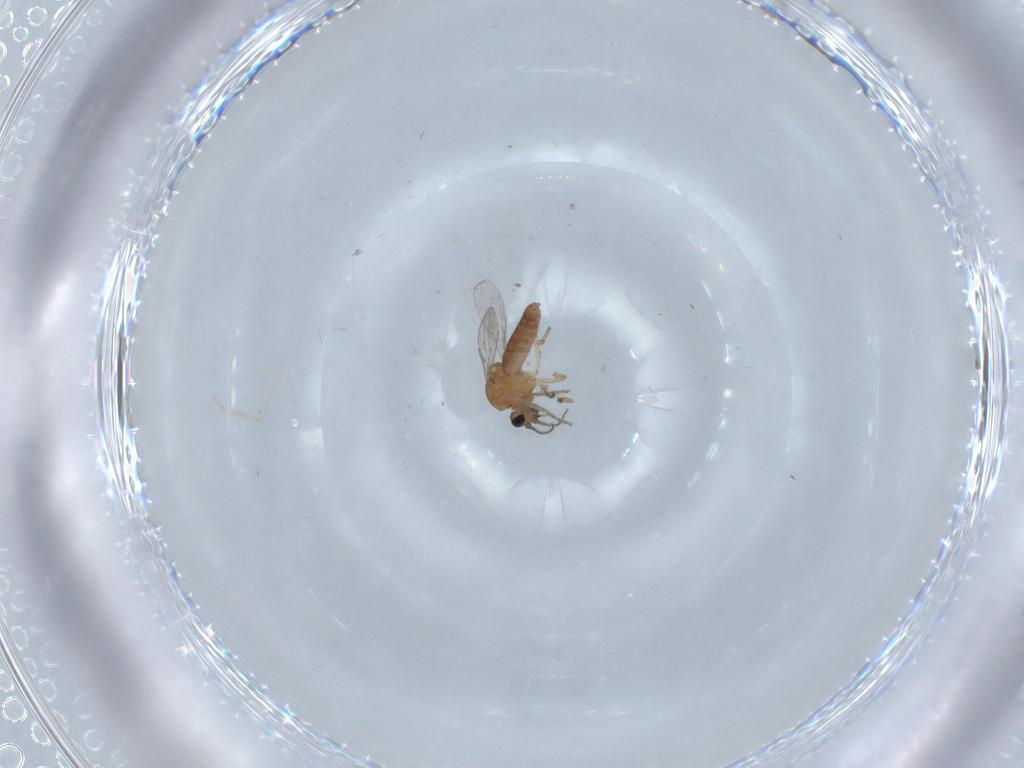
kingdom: Animalia
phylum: Arthropoda
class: Insecta
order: Diptera
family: Ceratopogonidae
